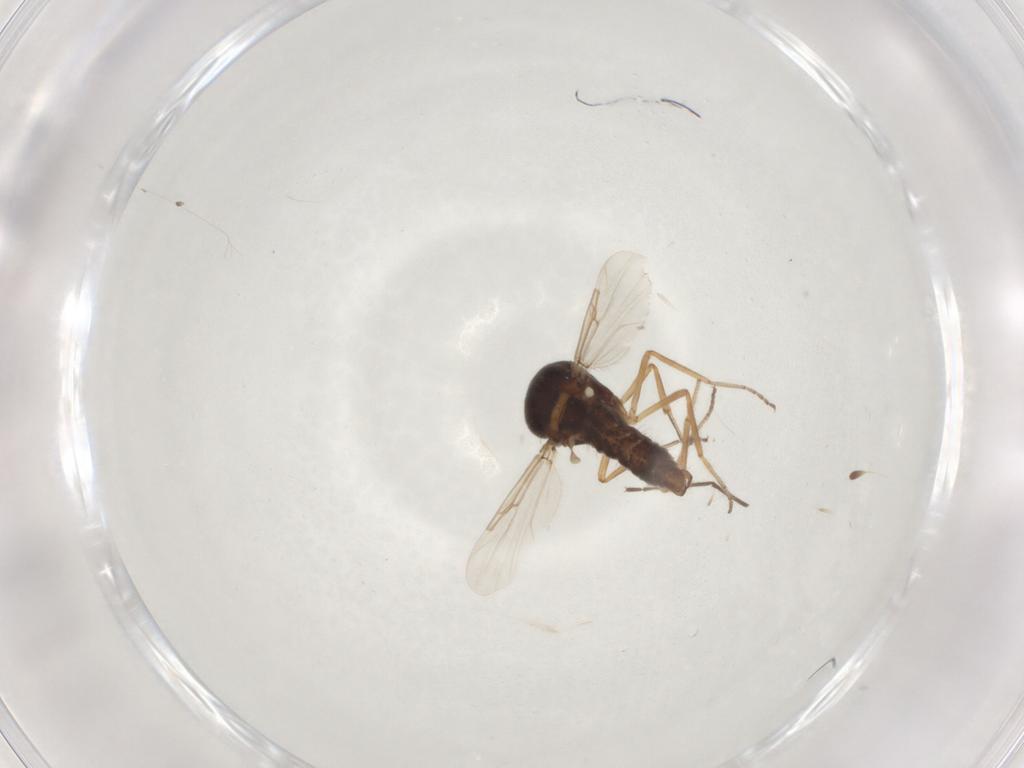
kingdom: Animalia
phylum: Arthropoda
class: Insecta
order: Diptera
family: Ceratopogonidae
